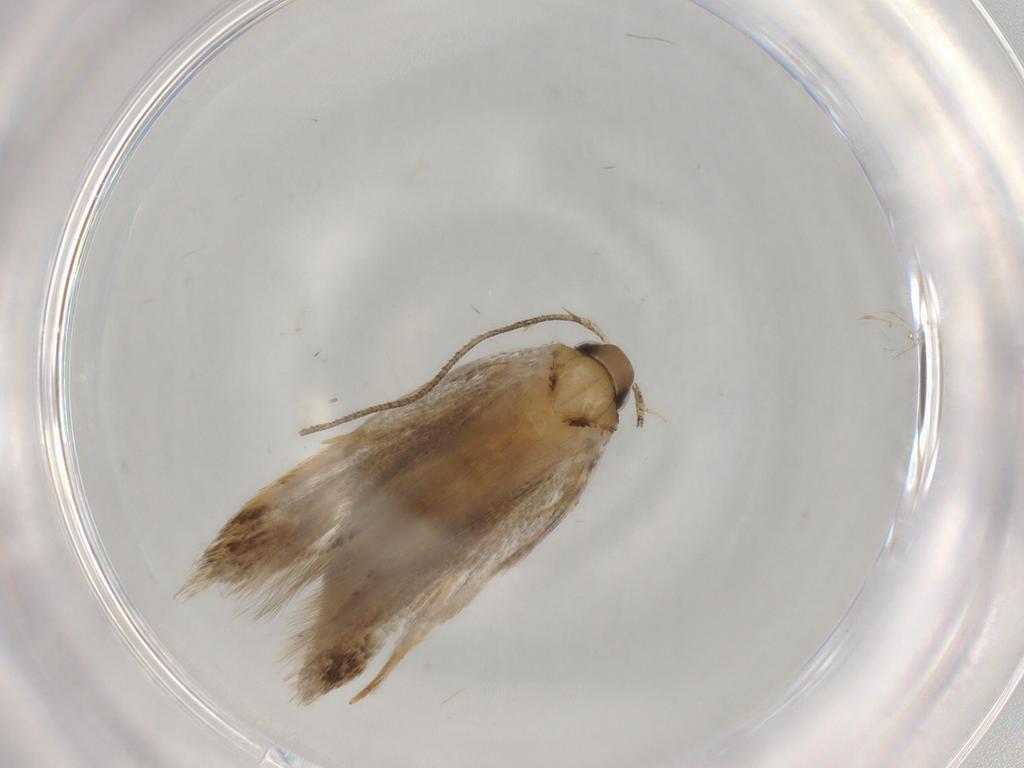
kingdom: Animalia
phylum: Arthropoda
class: Insecta
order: Lepidoptera
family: Autostichidae
